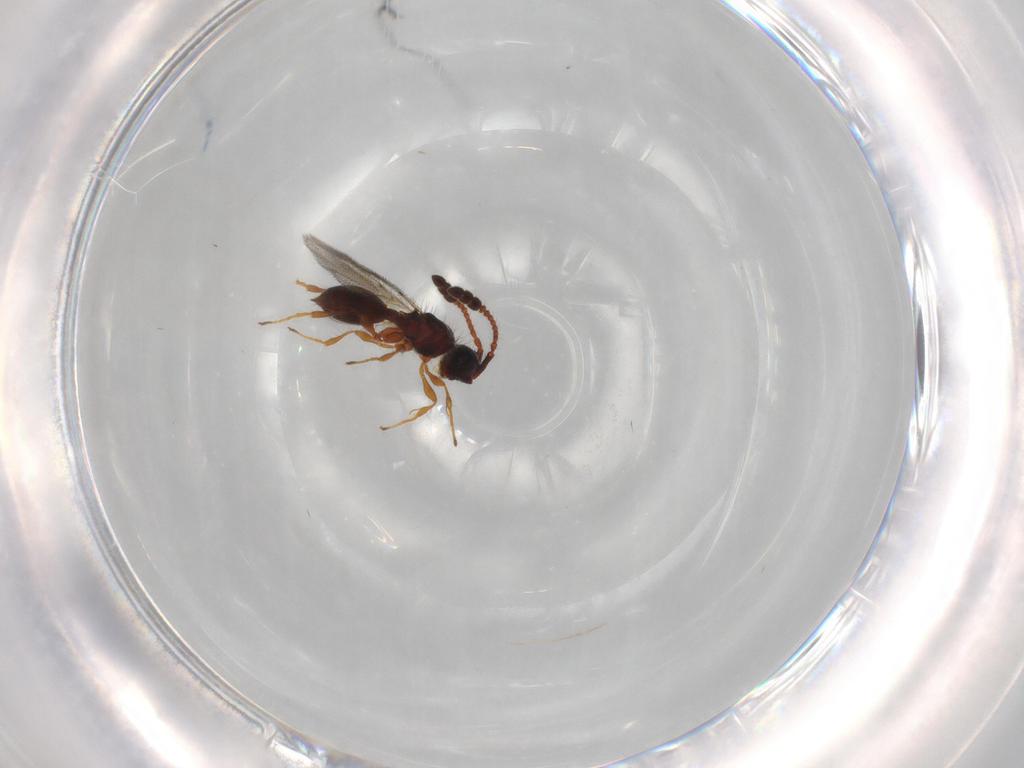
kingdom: Animalia
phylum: Arthropoda
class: Insecta
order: Hymenoptera
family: Diapriidae
